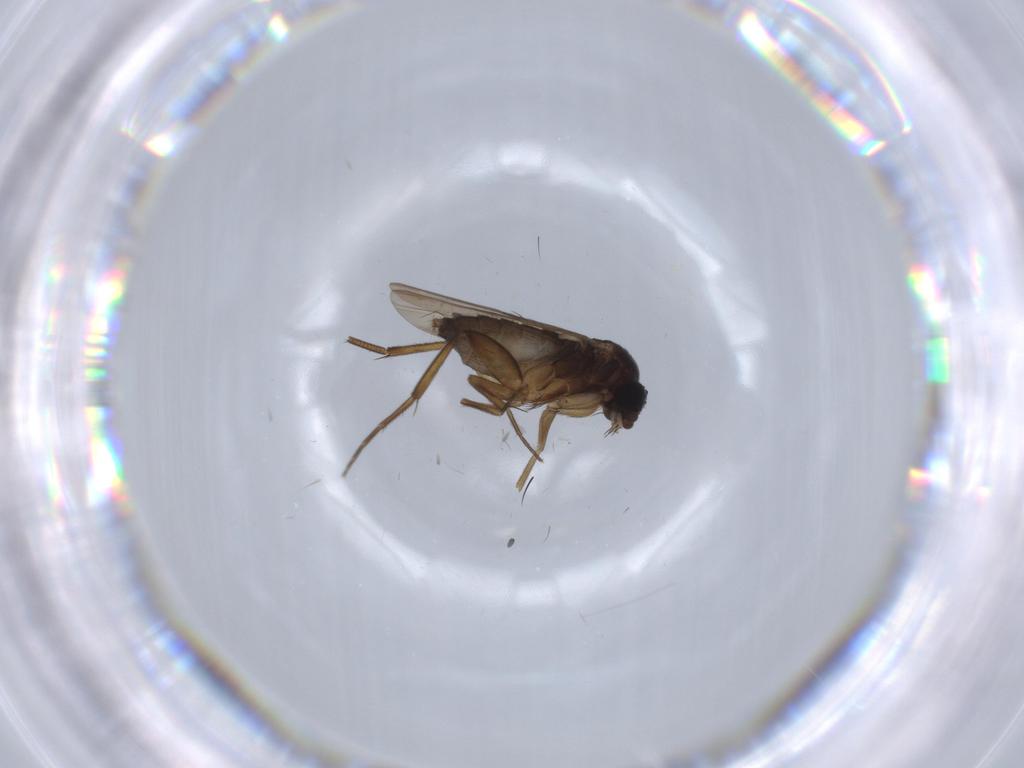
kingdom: Animalia
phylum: Arthropoda
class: Insecta
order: Diptera
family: Phoridae
